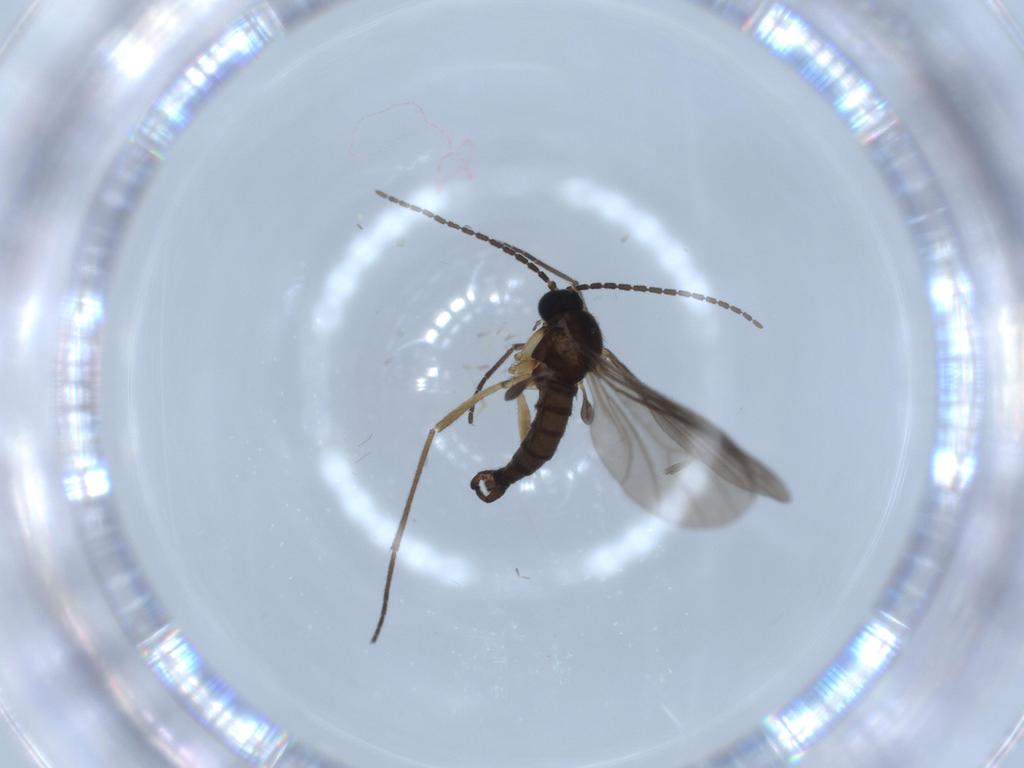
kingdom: Animalia
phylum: Arthropoda
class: Insecta
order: Diptera
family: Sciaridae
